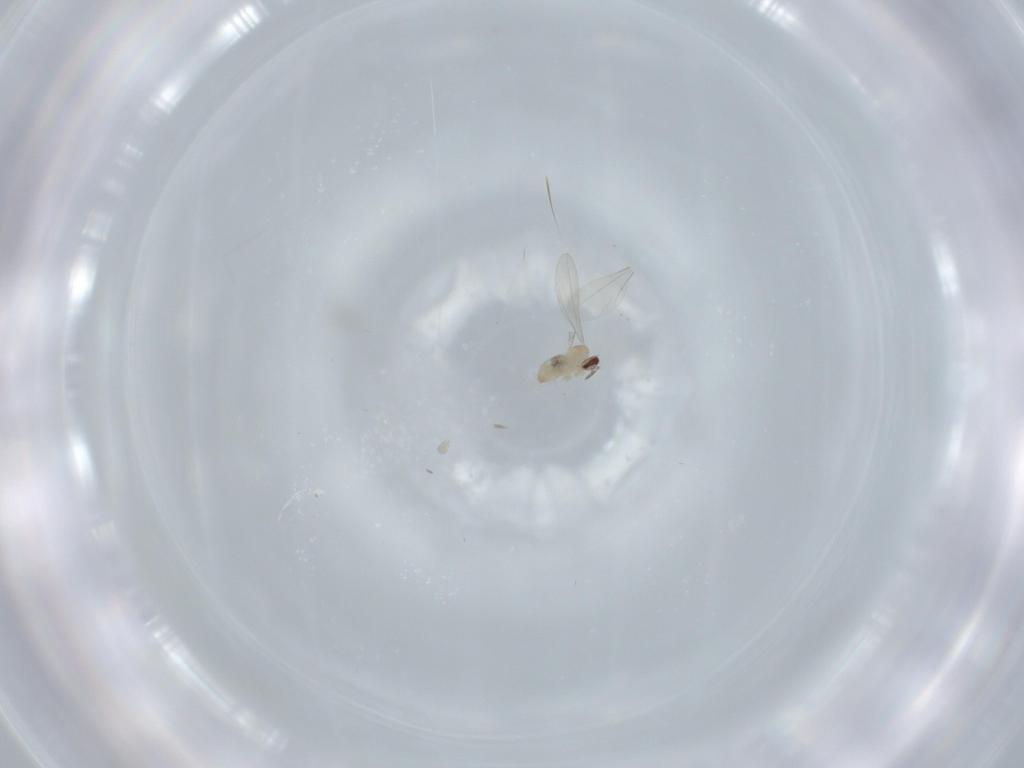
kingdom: Animalia
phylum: Arthropoda
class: Insecta
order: Diptera
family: Cecidomyiidae
